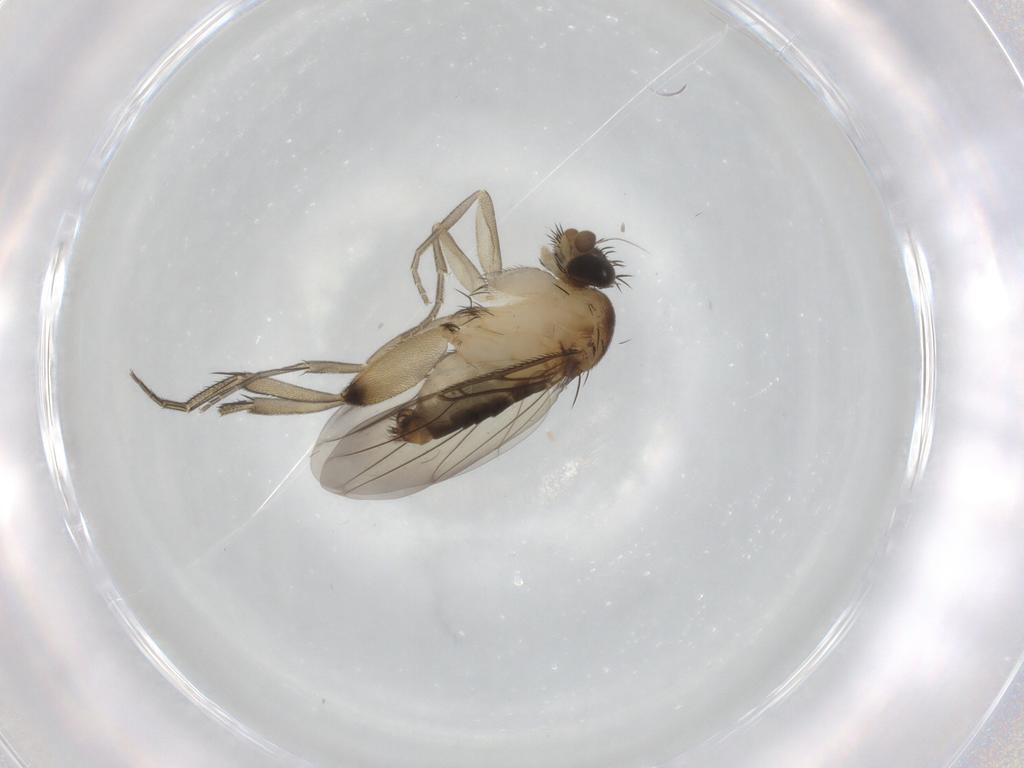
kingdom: Animalia
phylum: Arthropoda
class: Insecta
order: Diptera
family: Phoridae
